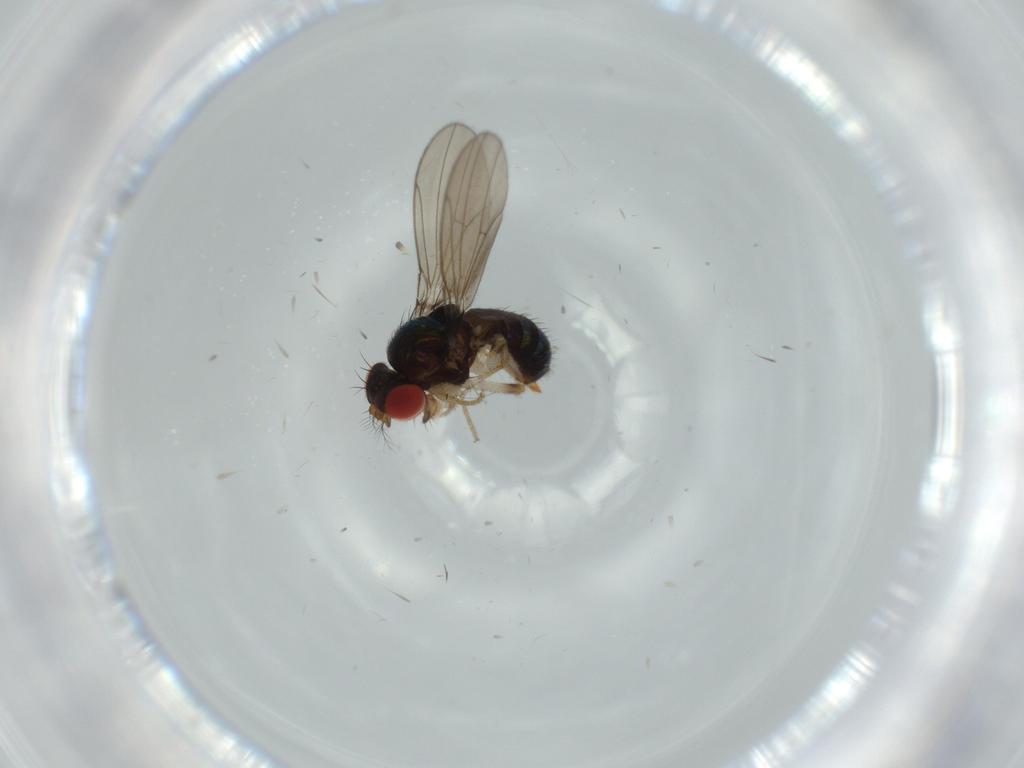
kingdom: Animalia
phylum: Arthropoda
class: Insecta
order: Diptera
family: Drosophilidae
